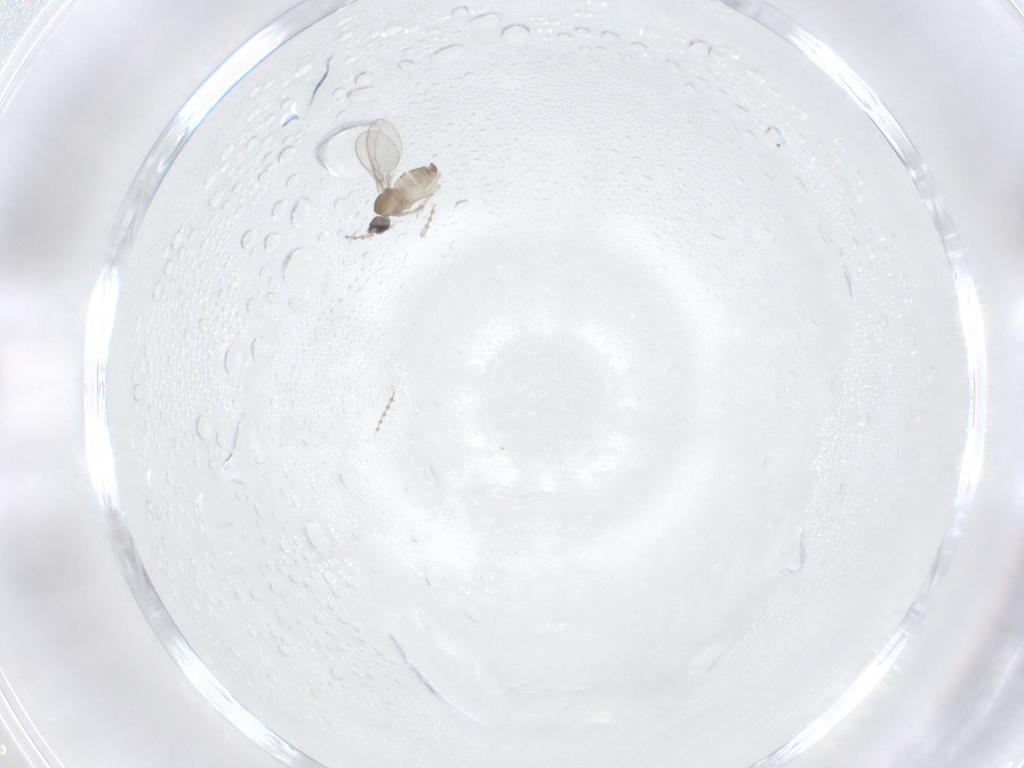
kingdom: Animalia
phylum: Arthropoda
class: Insecta
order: Diptera
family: Cecidomyiidae
